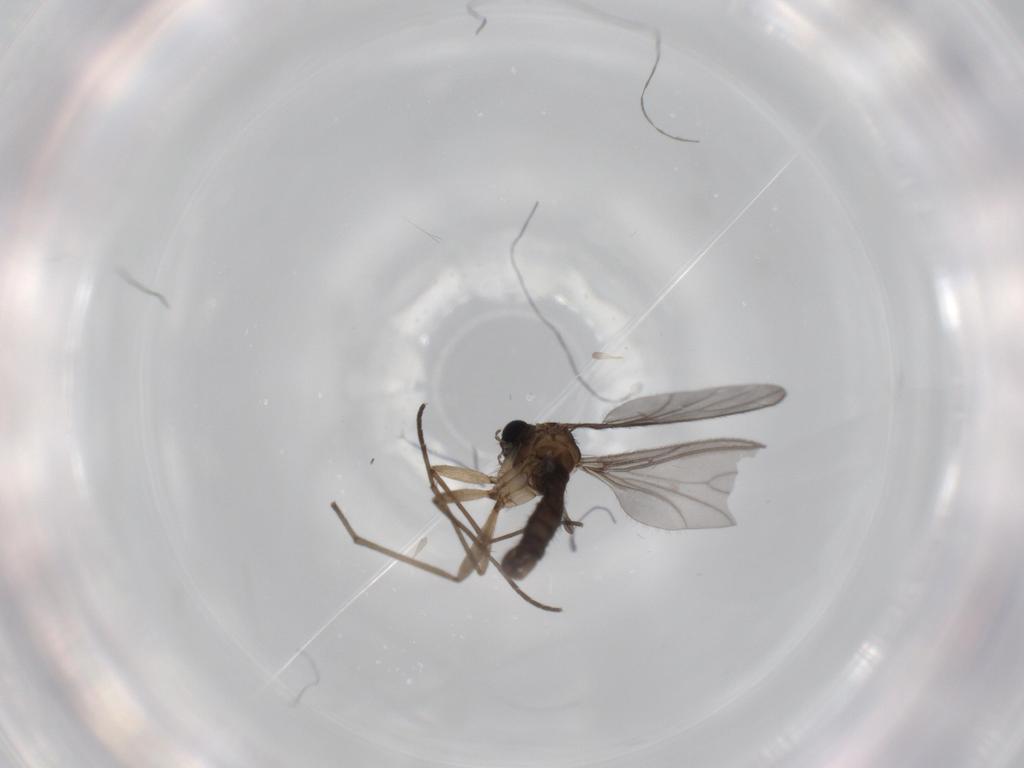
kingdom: Animalia
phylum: Arthropoda
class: Insecta
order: Diptera
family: Sciaridae
